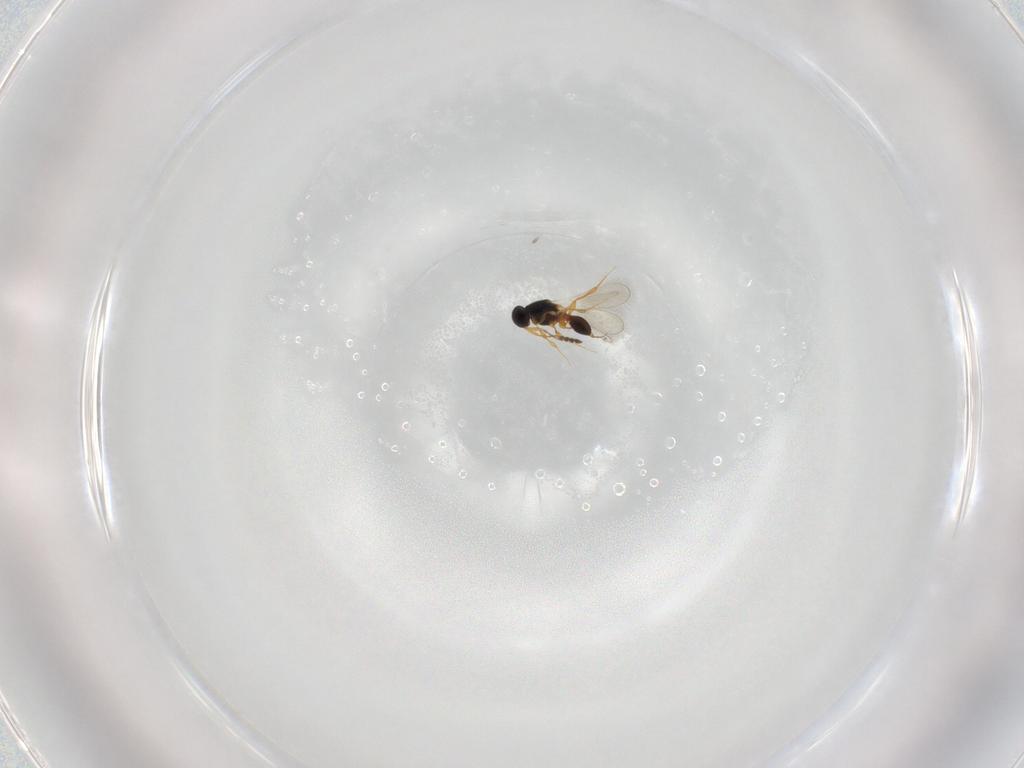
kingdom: Animalia
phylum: Arthropoda
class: Insecta
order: Hymenoptera
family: Platygastridae
